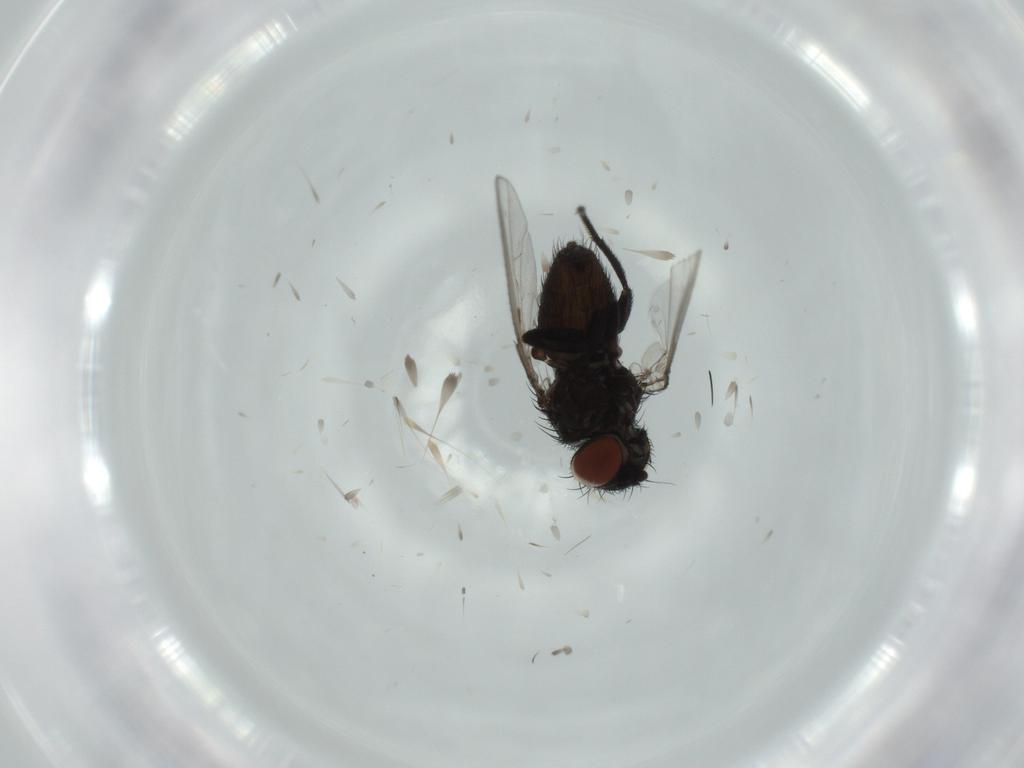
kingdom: Animalia
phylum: Arthropoda
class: Insecta
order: Diptera
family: Milichiidae
